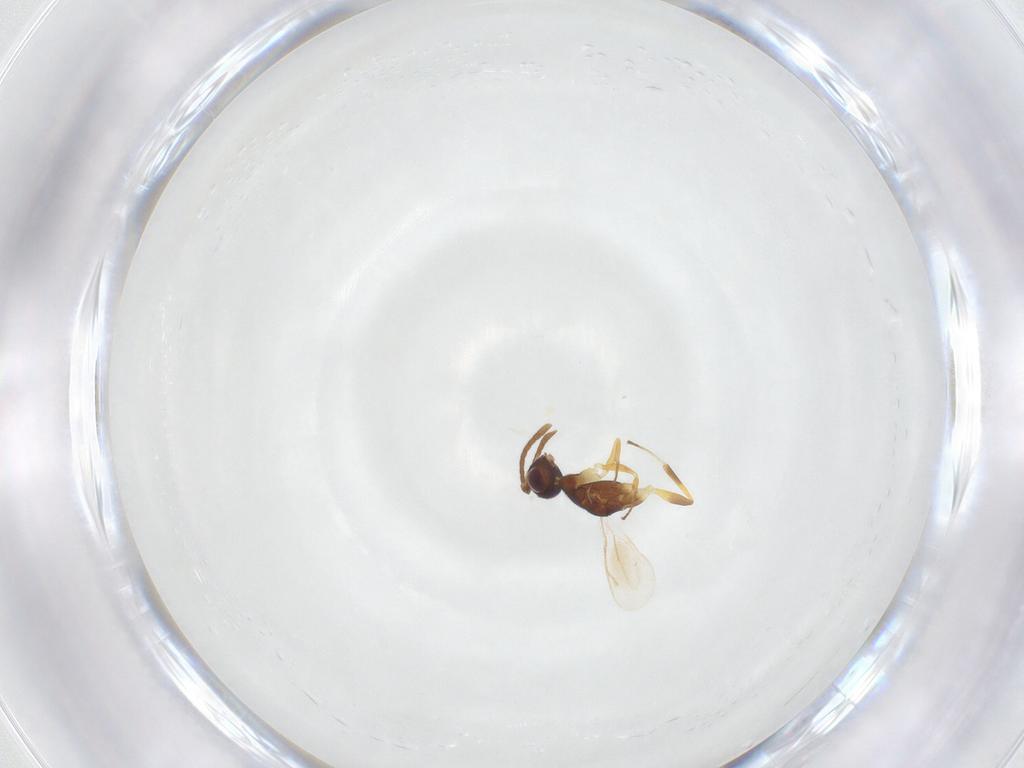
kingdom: Animalia
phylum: Arthropoda
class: Insecta
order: Hymenoptera
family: Eupelmidae
